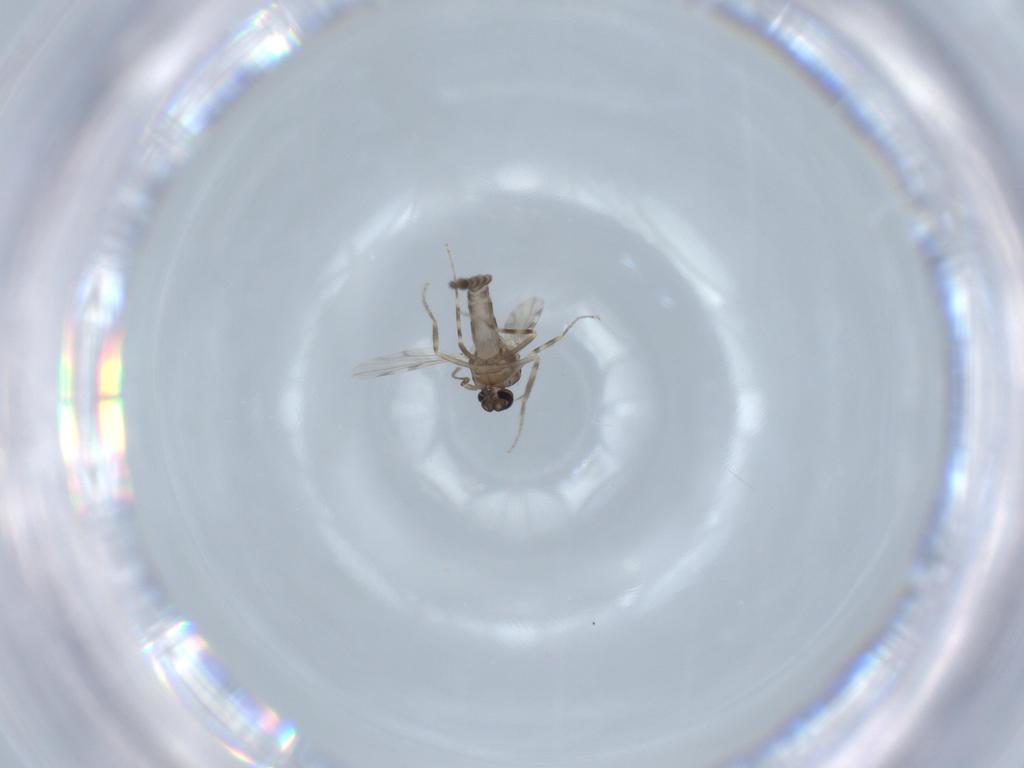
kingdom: Animalia
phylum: Arthropoda
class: Insecta
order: Diptera
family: Ceratopogonidae
